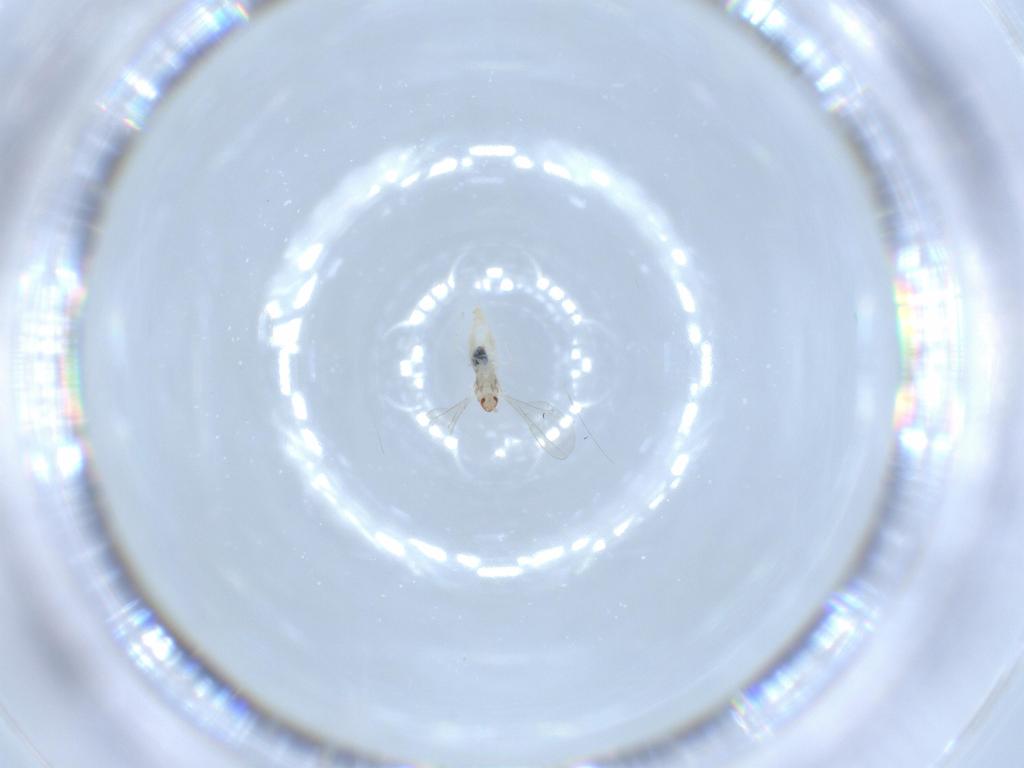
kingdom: Animalia
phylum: Arthropoda
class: Insecta
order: Diptera
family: Cecidomyiidae
